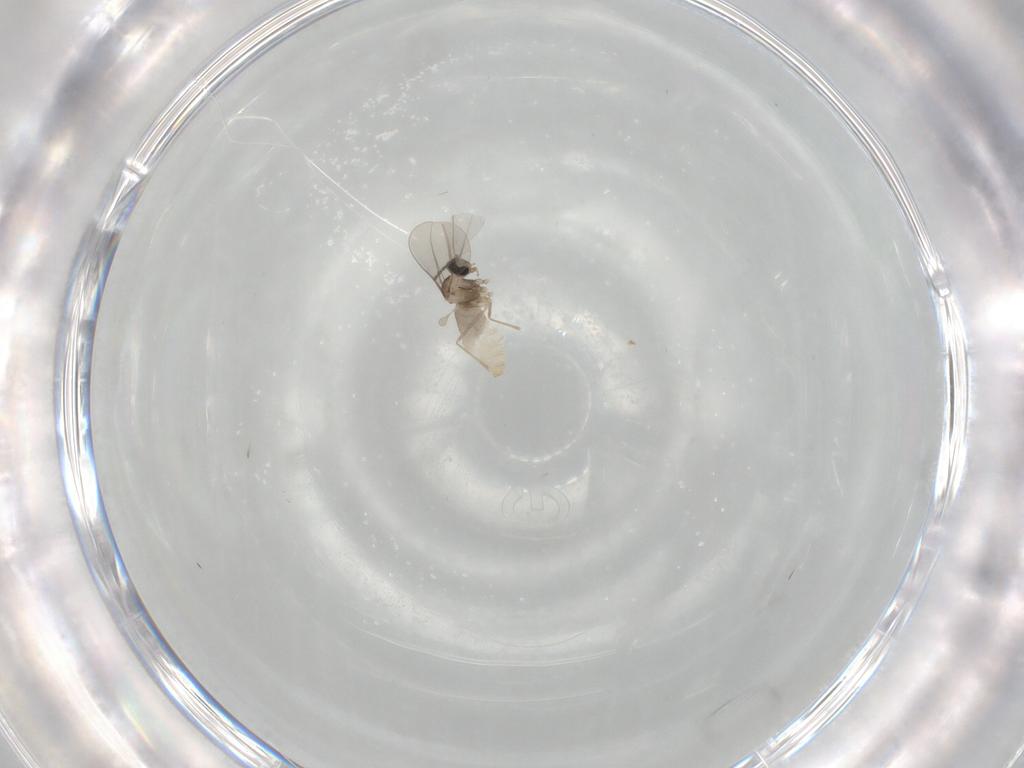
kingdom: Animalia
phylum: Arthropoda
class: Insecta
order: Diptera
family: Cecidomyiidae
